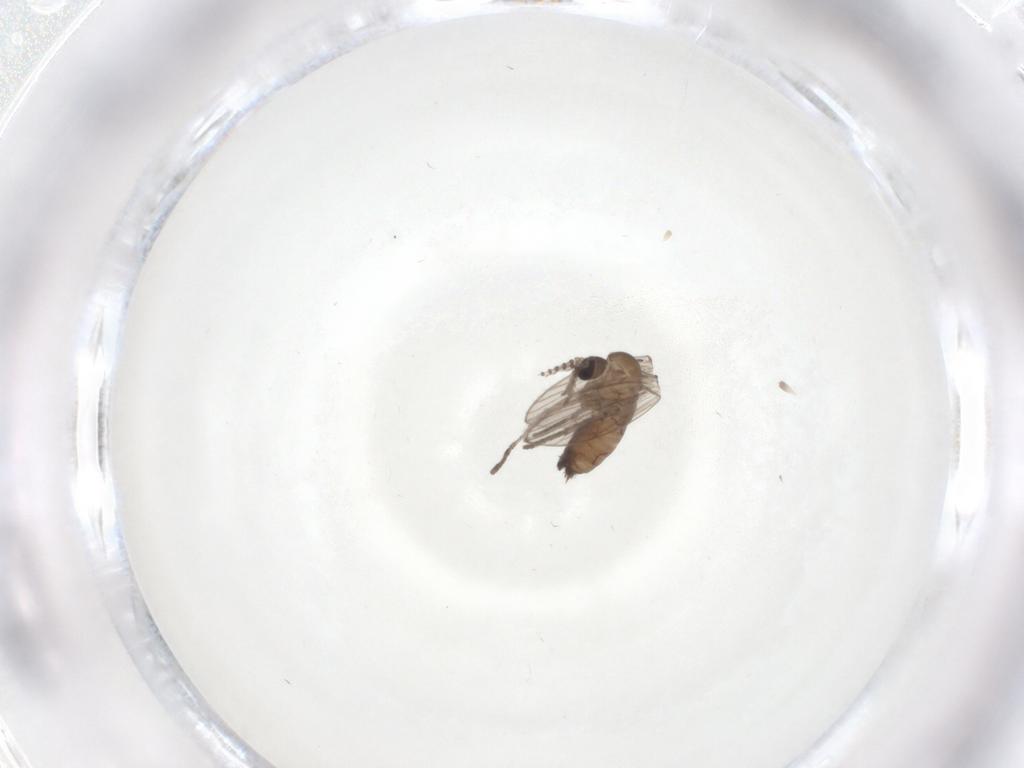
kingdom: Animalia
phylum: Arthropoda
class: Insecta
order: Diptera
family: Psychodidae
